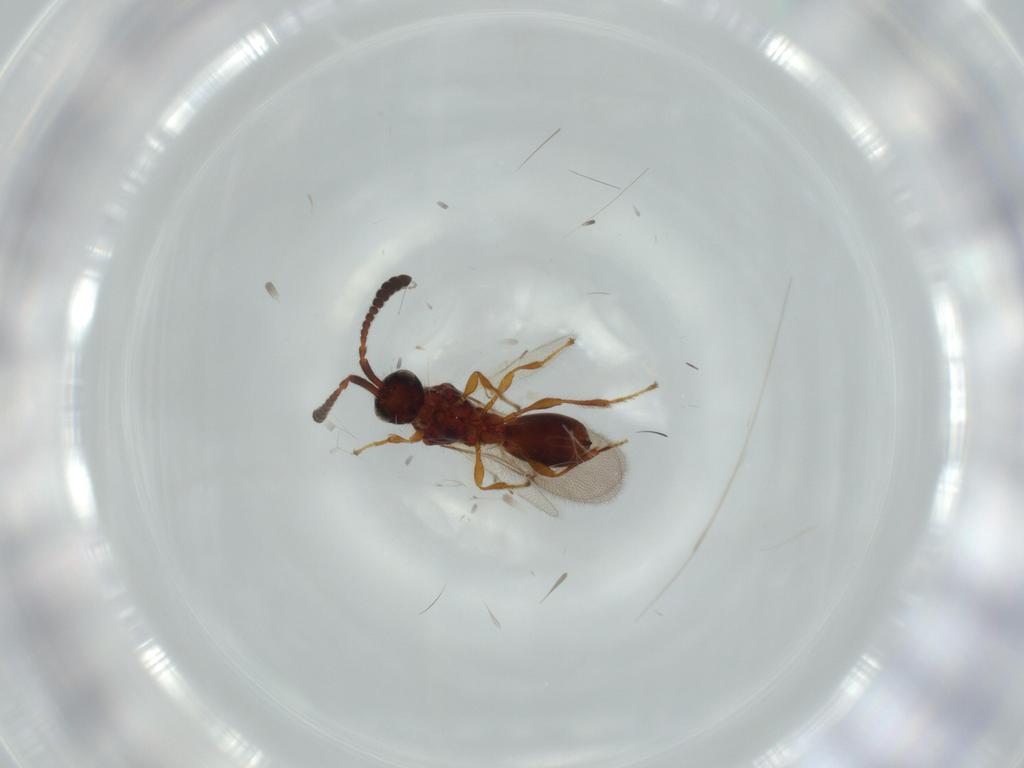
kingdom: Animalia
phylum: Arthropoda
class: Insecta
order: Hymenoptera
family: Diapriidae
